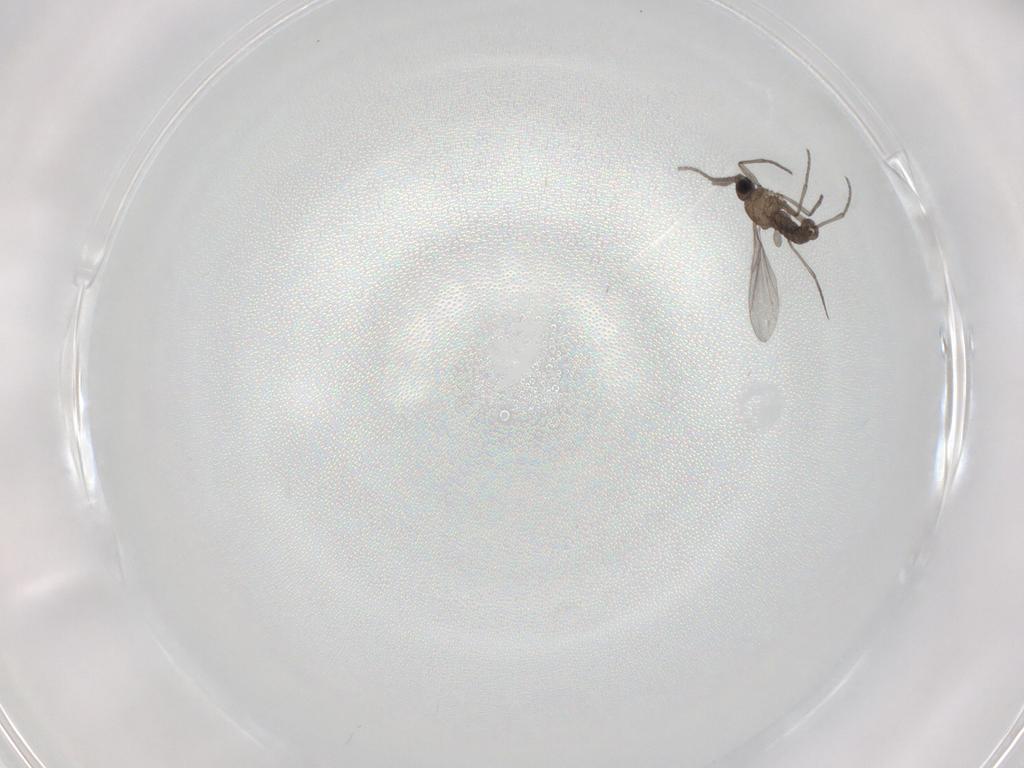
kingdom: Animalia
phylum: Arthropoda
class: Insecta
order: Diptera
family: Sciaridae
